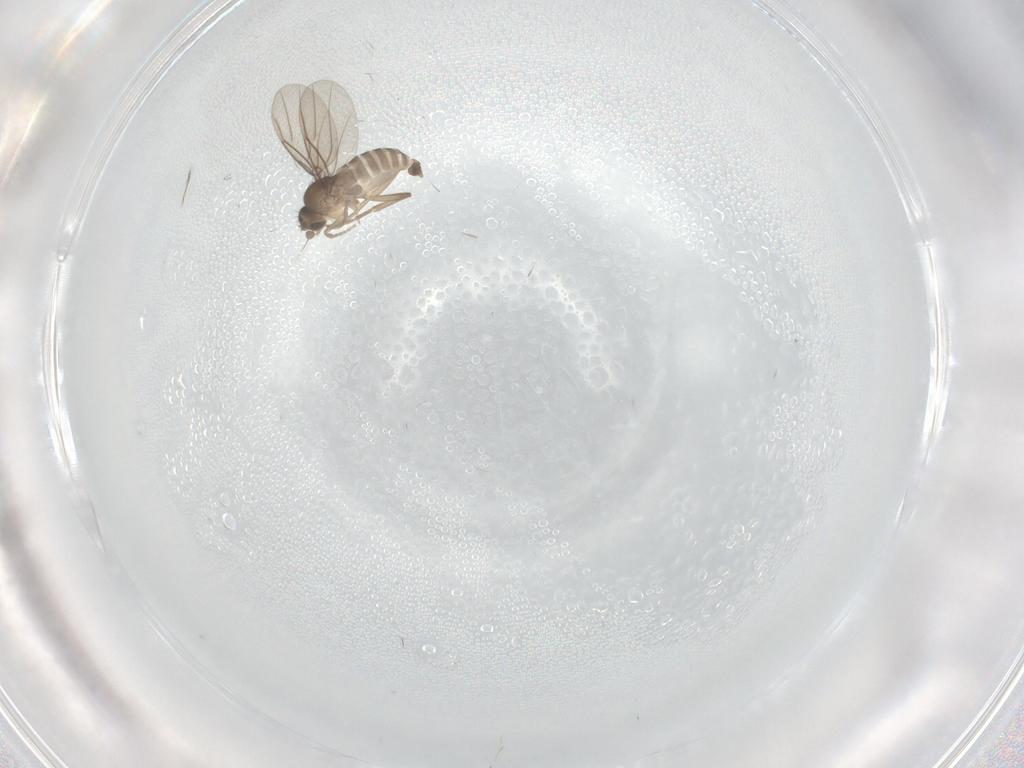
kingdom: Animalia
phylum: Arthropoda
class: Insecta
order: Diptera
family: Phoridae
